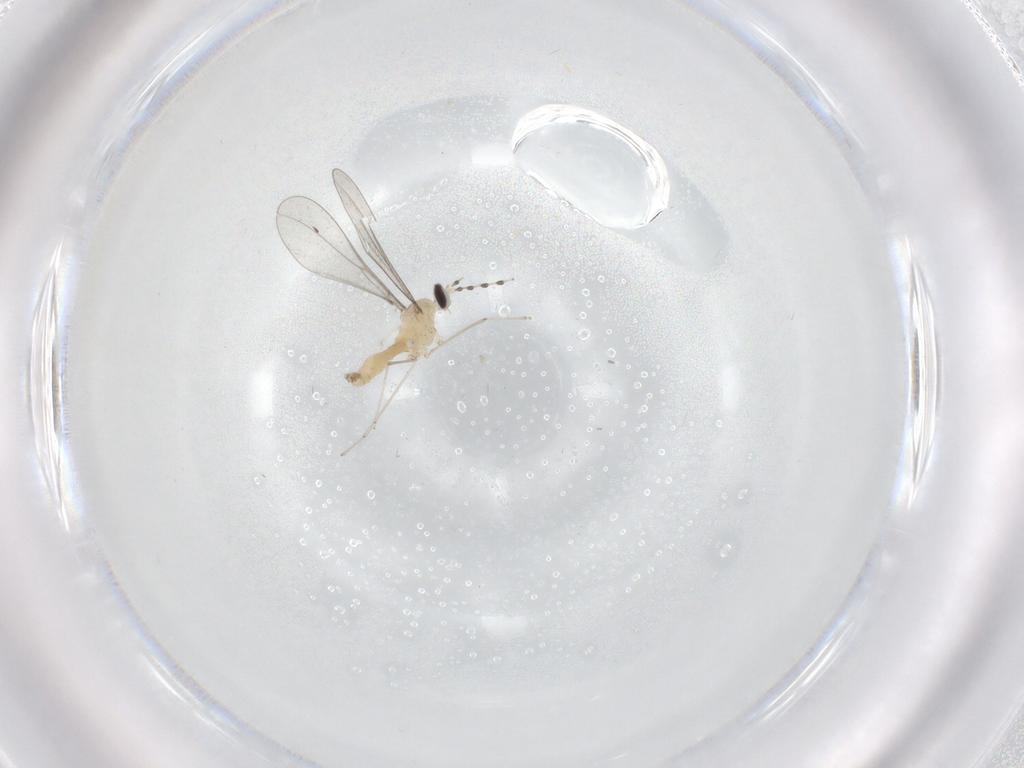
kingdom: Animalia
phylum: Arthropoda
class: Insecta
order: Diptera
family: Cecidomyiidae
